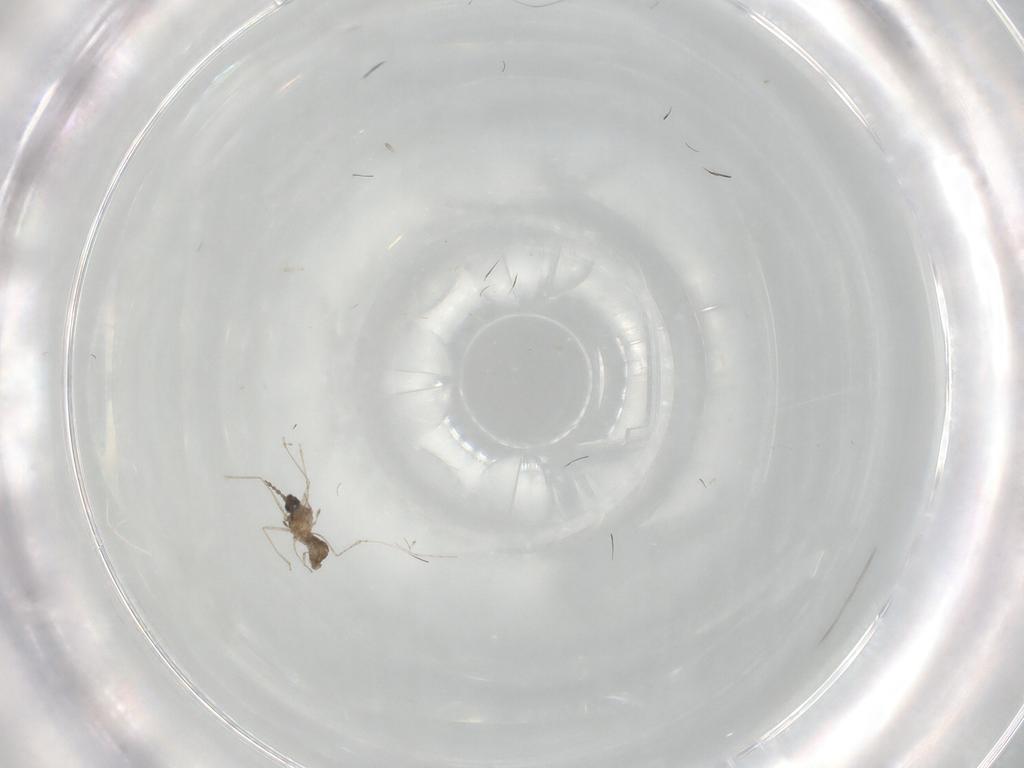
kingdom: Animalia
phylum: Arthropoda
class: Insecta
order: Diptera
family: Cecidomyiidae
